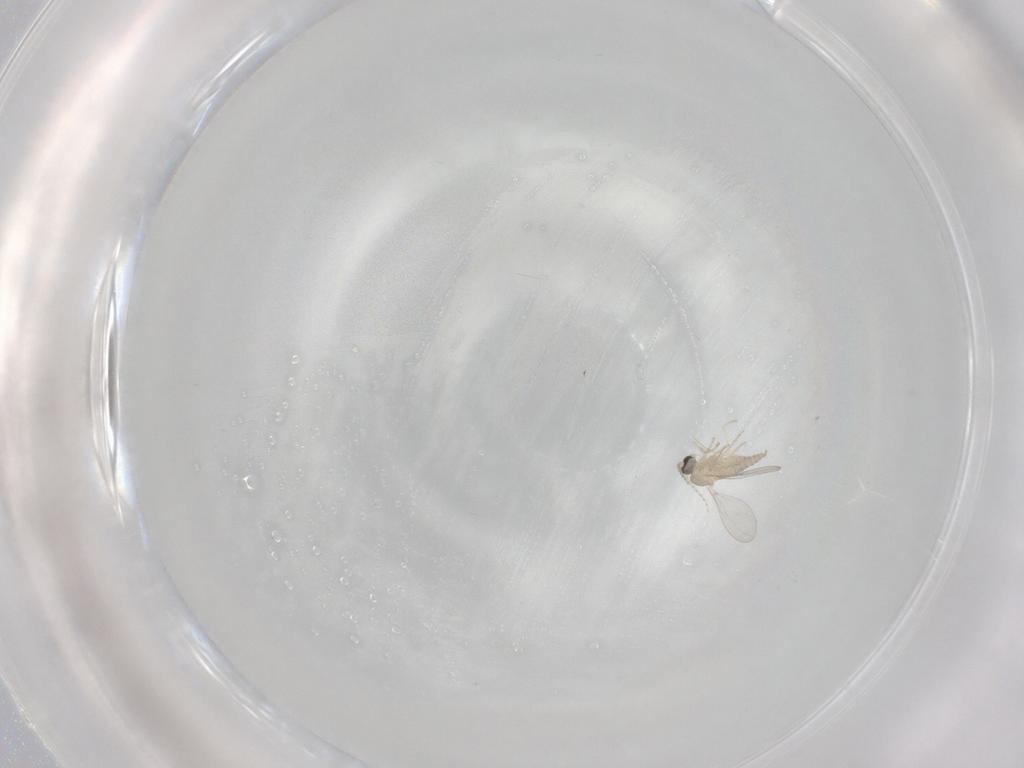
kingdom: Animalia
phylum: Arthropoda
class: Insecta
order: Diptera
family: Cecidomyiidae
